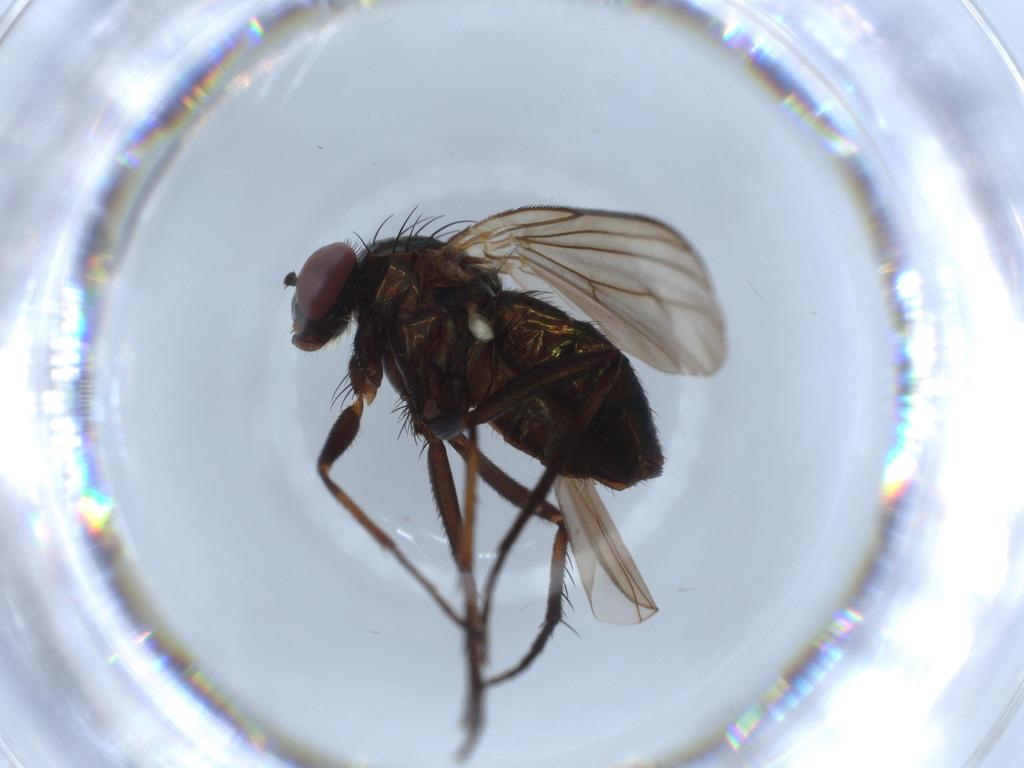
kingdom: Animalia
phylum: Arthropoda
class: Insecta
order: Diptera
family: Dolichopodidae
